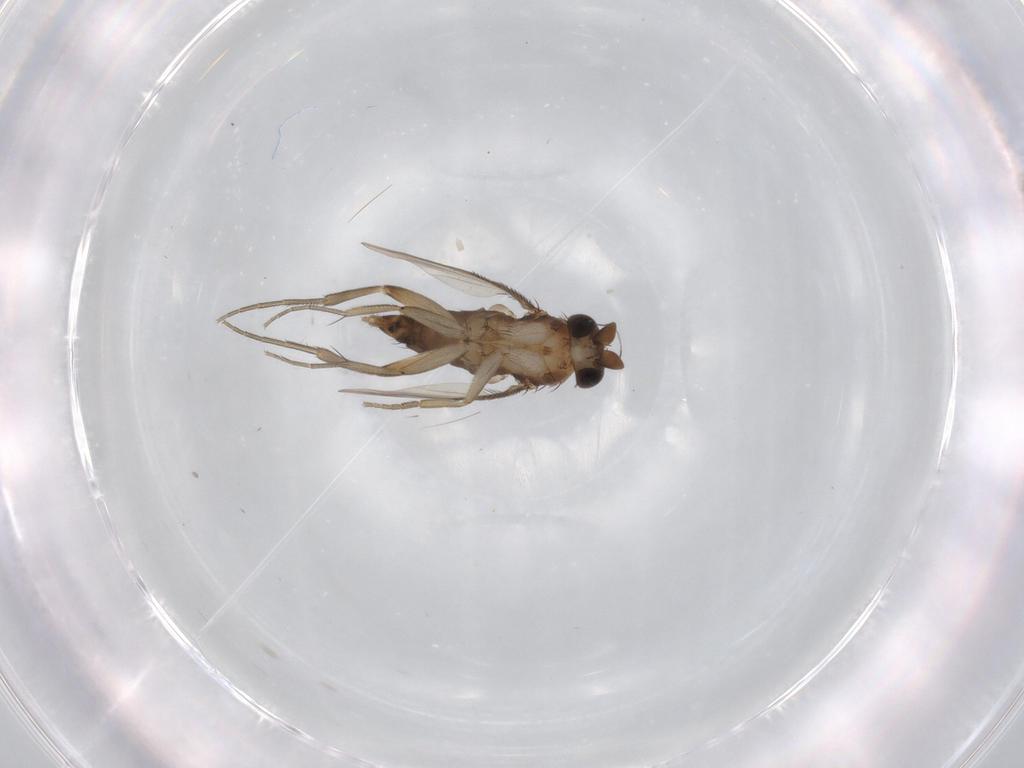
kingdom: Animalia
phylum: Arthropoda
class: Insecta
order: Diptera
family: Phoridae
